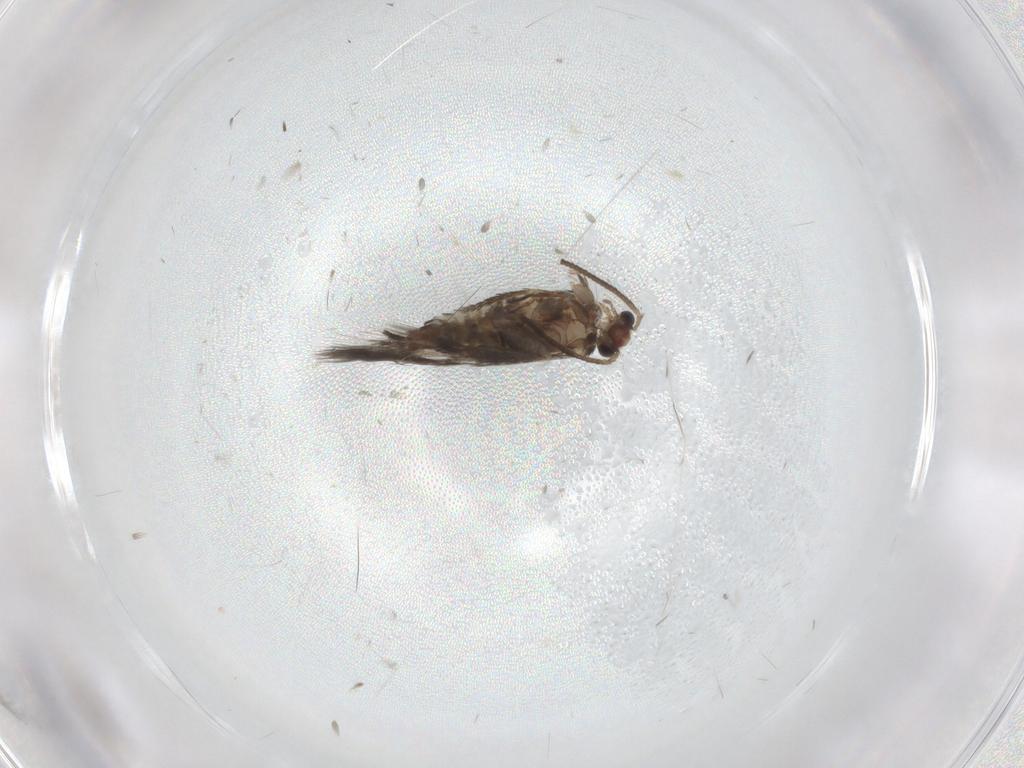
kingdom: Animalia
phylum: Arthropoda
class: Insecta
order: Lepidoptera
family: Nepticulidae
